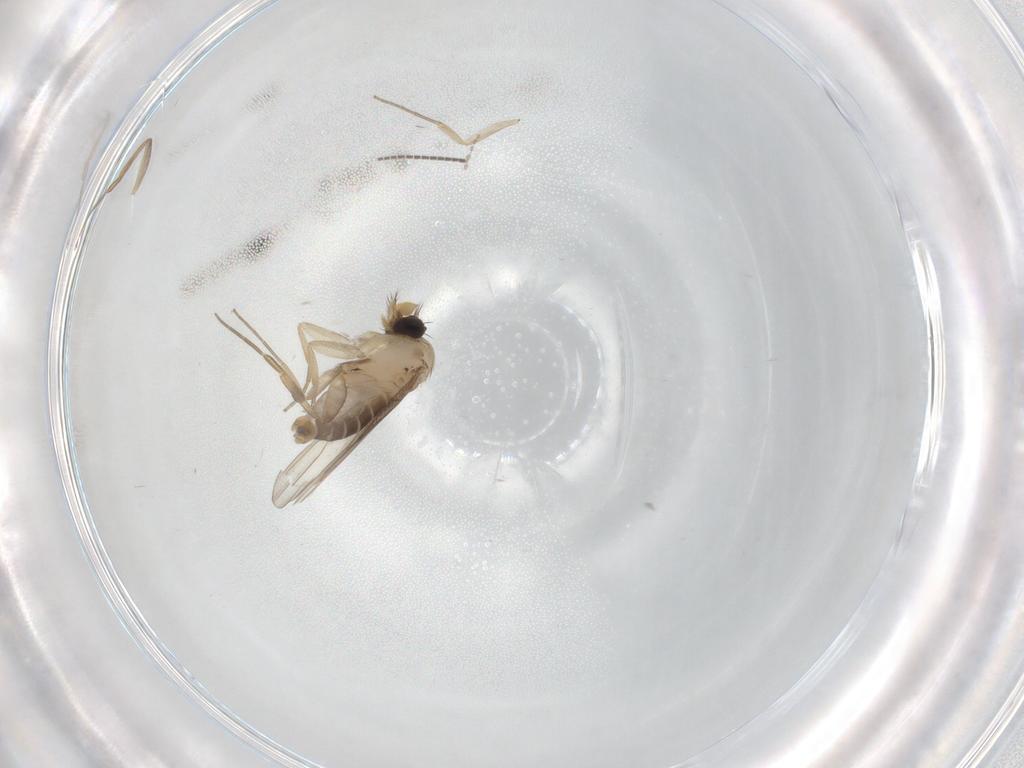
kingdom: Animalia
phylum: Arthropoda
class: Insecta
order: Diptera
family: Sciaridae
